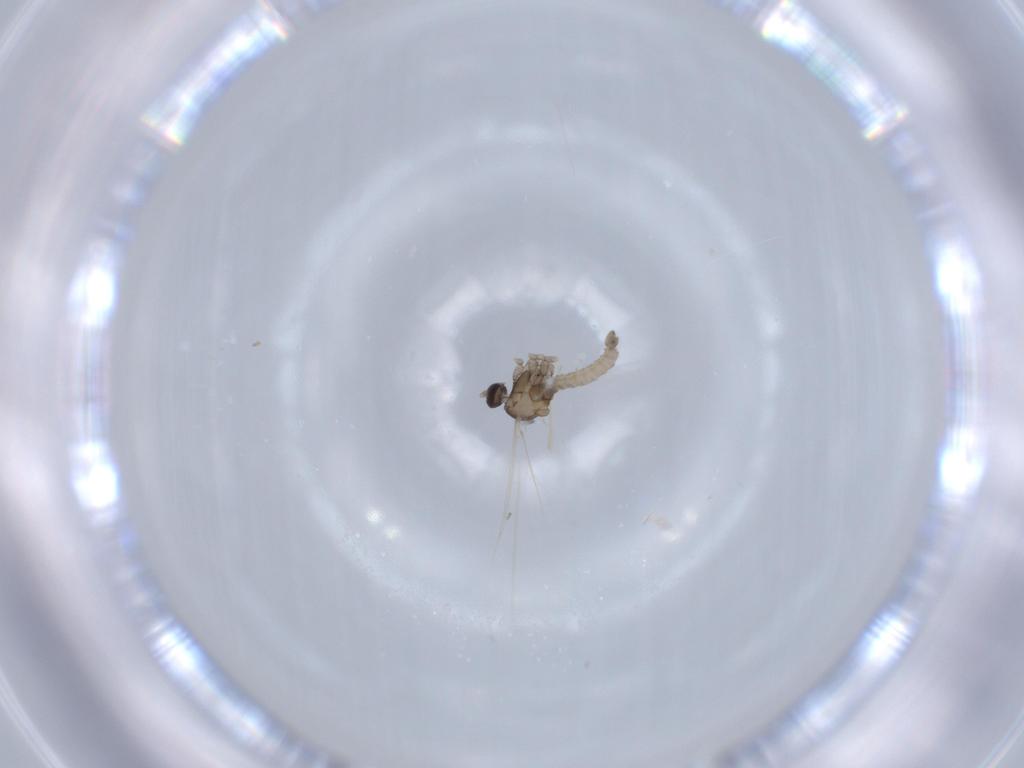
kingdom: Animalia
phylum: Arthropoda
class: Insecta
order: Diptera
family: Cecidomyiidae
